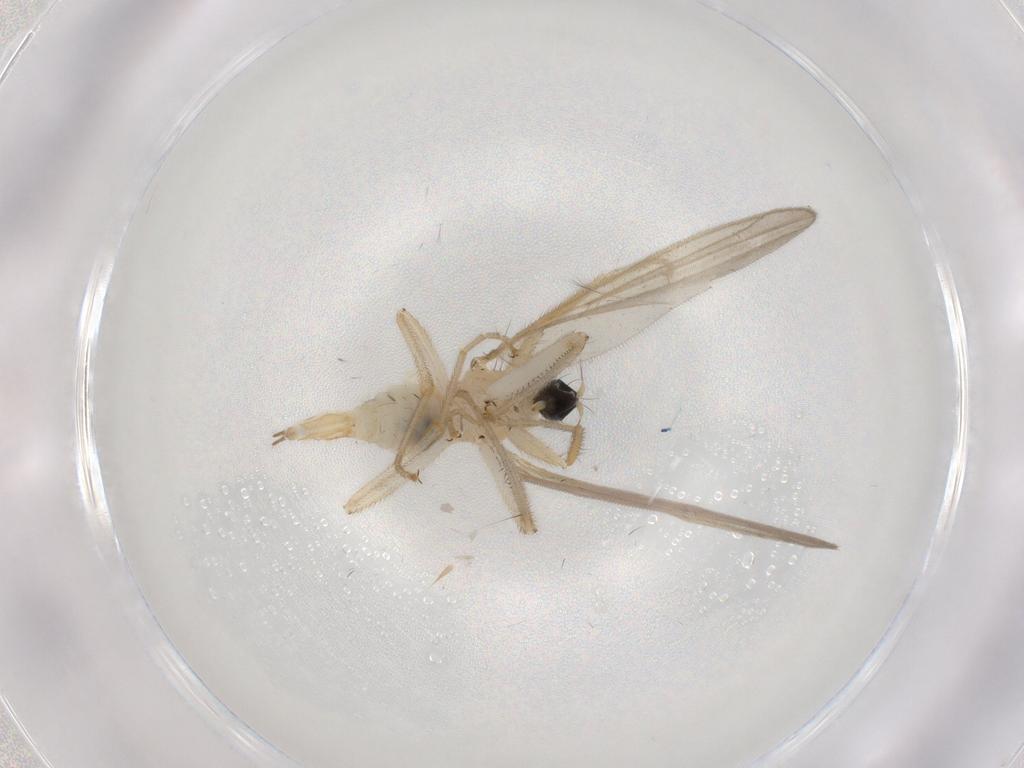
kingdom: Animalia
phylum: Arthropoda
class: Insecta
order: Diptera
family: Hybotidae
